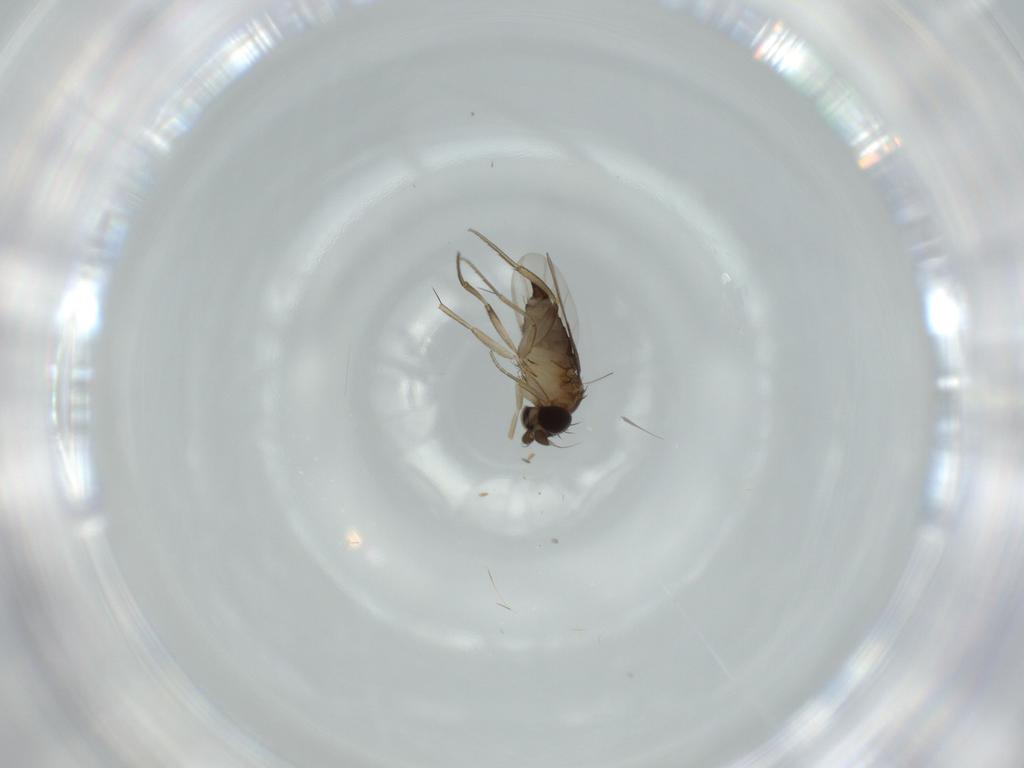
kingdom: Animalia
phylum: Arthropoda
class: Insecta
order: Diptera
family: Phoridae
